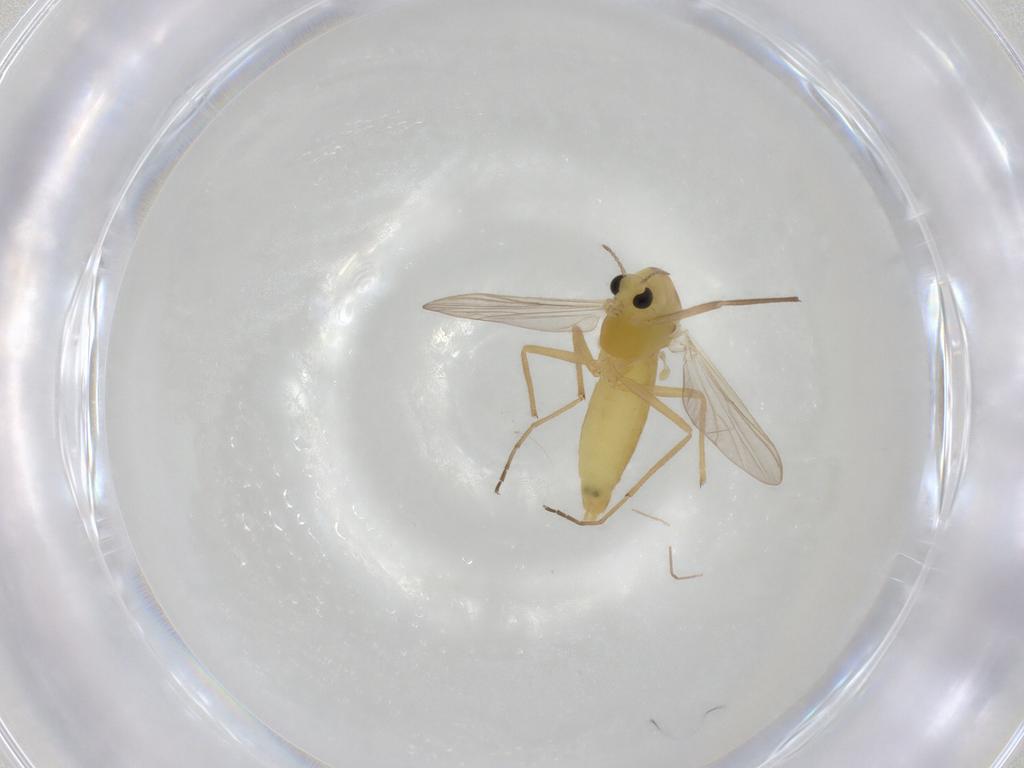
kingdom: Animalia
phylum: Arthropoda
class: Insecta
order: Diptera
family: Chironomidae
